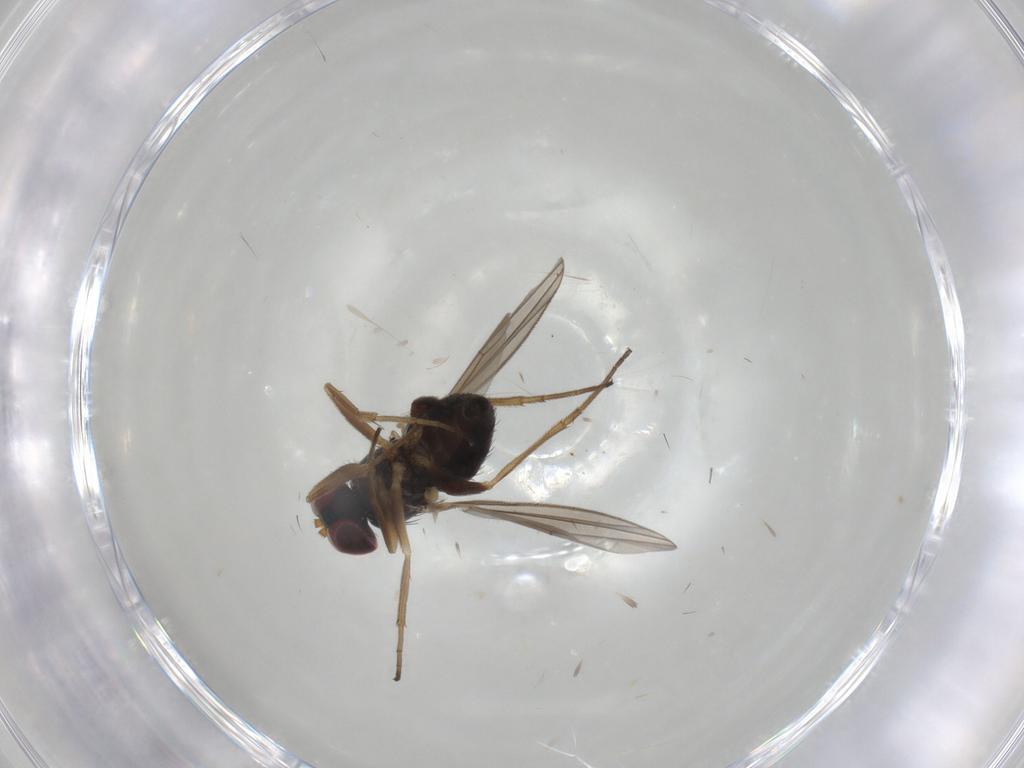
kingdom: Animalia
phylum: Arthropoda
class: Insecta
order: Diptera
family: Dolichopodidae
